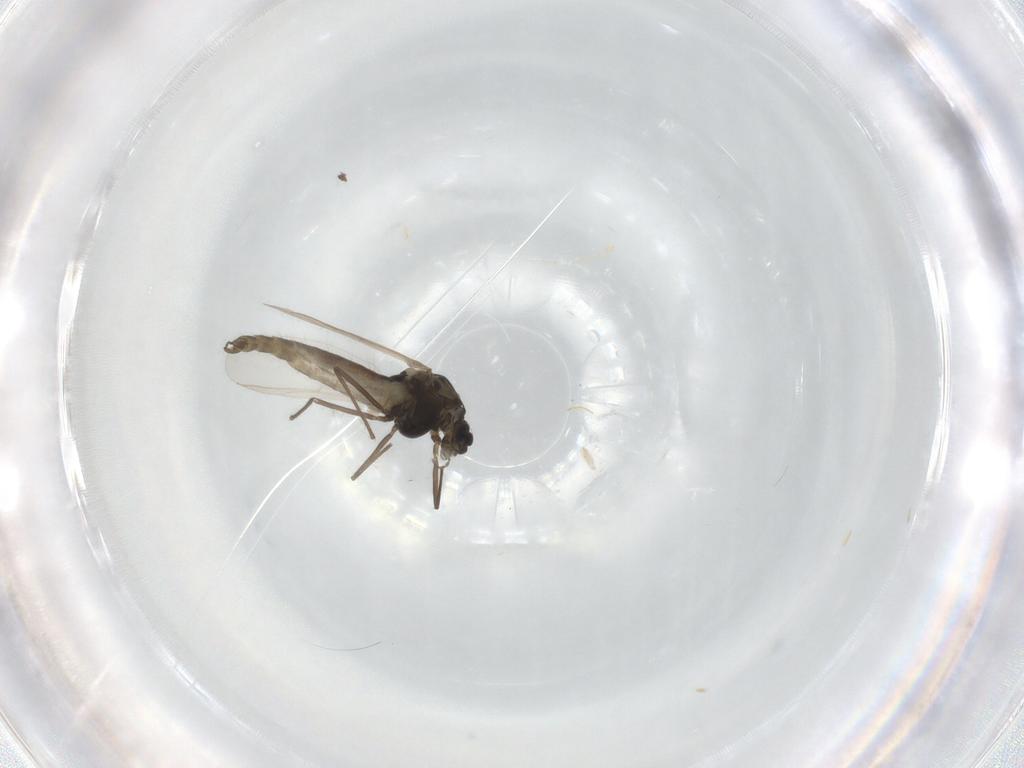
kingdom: Animalia
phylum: Arthropoda
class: Insecta
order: Diptera
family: Chironomidae
